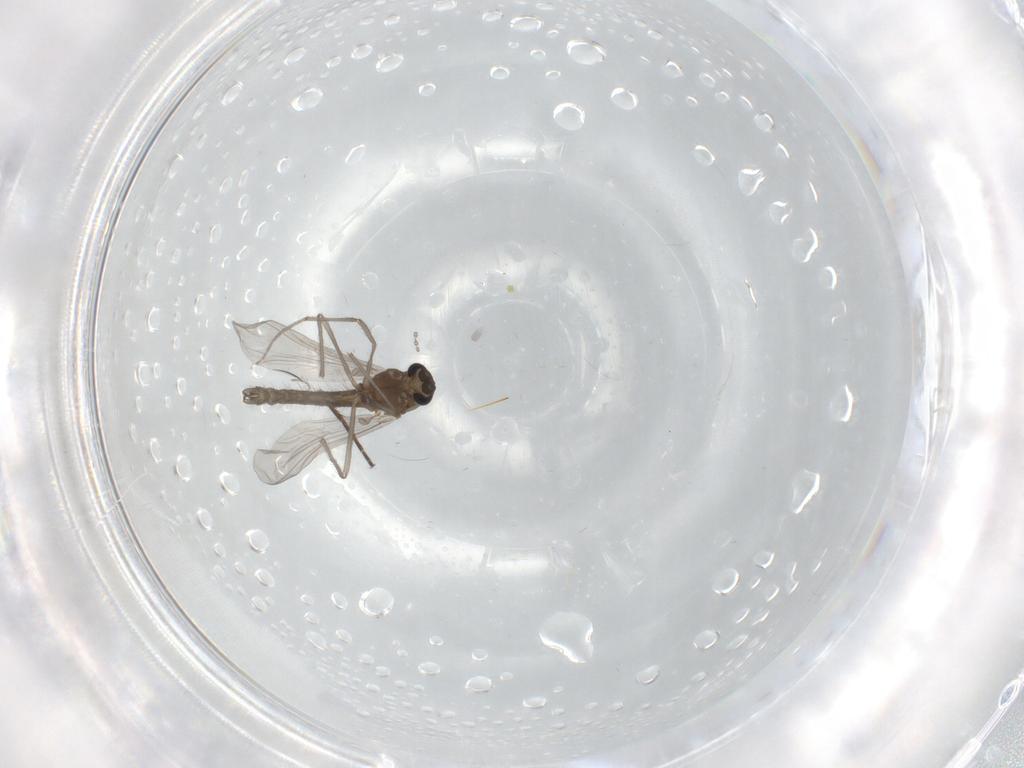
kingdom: Animalia
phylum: Arthropoda
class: Insecta
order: Diptera
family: Chironomidae
